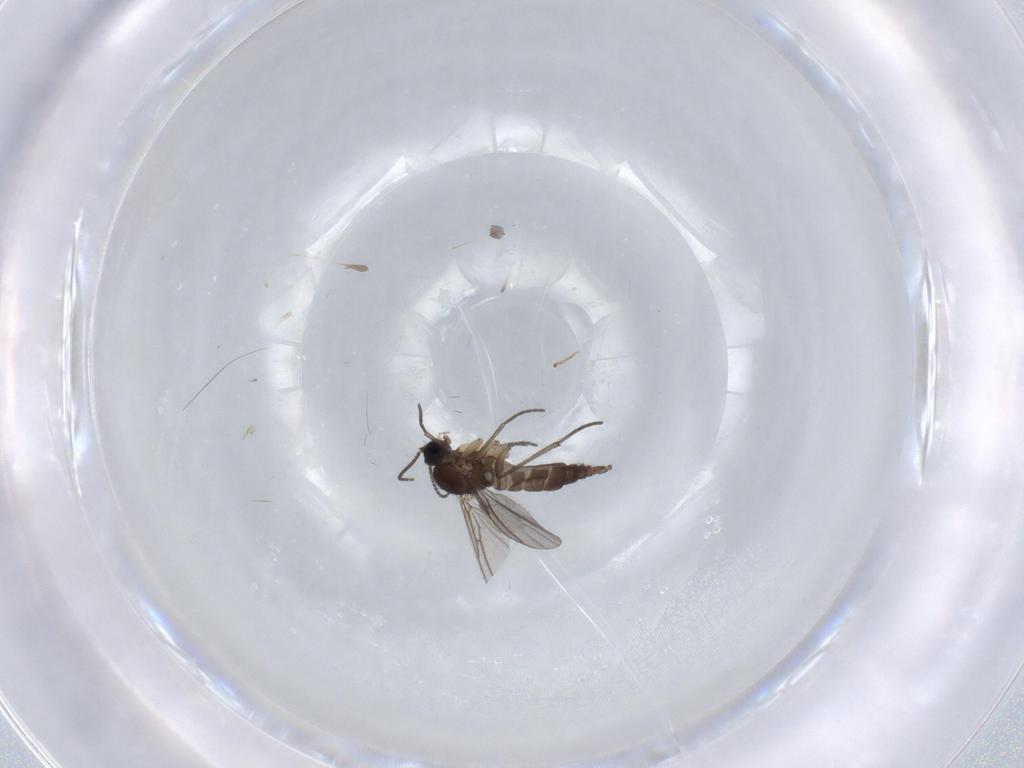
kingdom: Animalia
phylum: Arthropoda
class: Insecta
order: Diptera
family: Sciaridae
